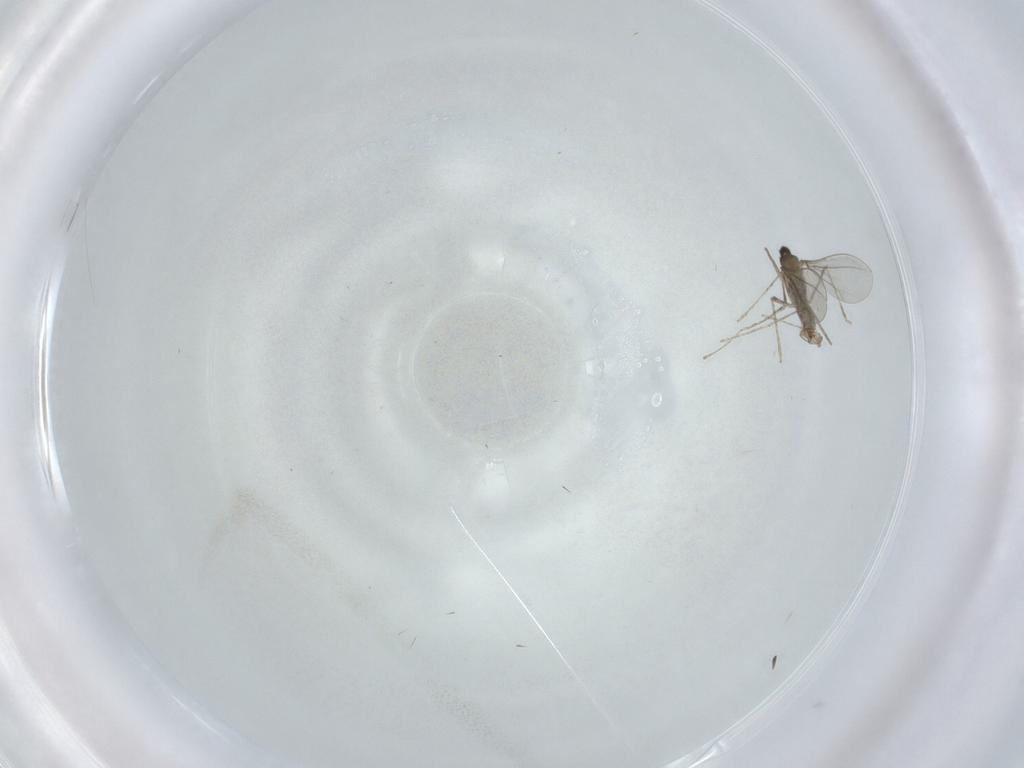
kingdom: Animalia
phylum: Arthropoda
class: Insecta
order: Diptera
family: Cecidomyiidae
